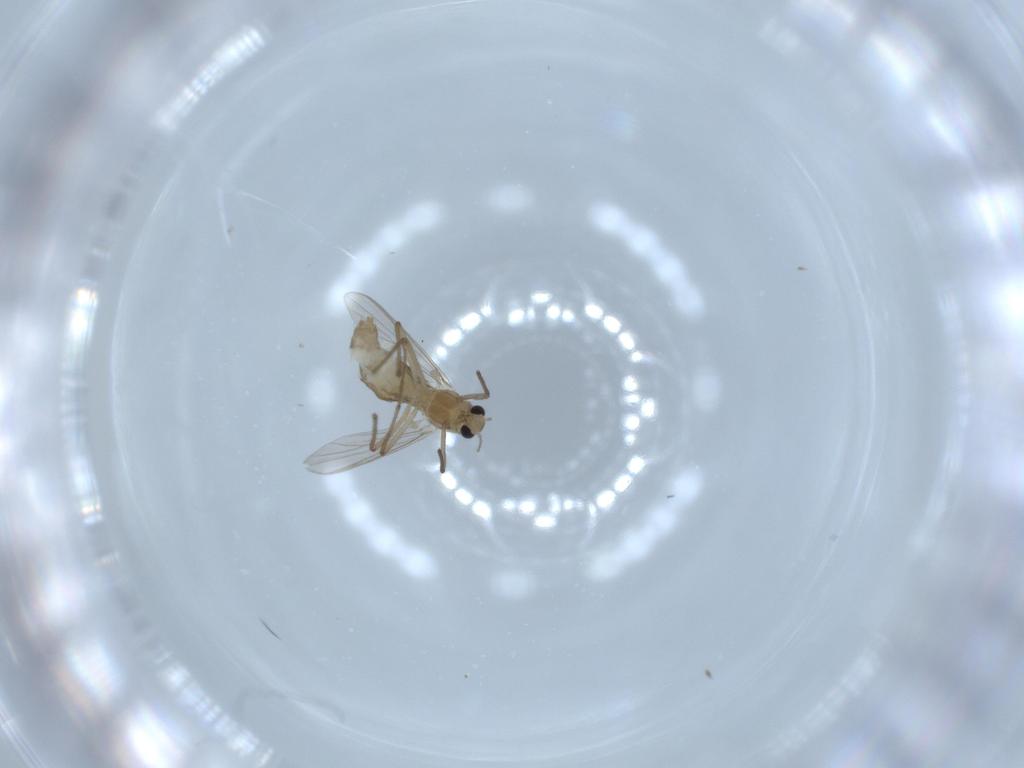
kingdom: Animalia
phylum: Arthropoda
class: Insecta
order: Diptera
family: Chironomidae
